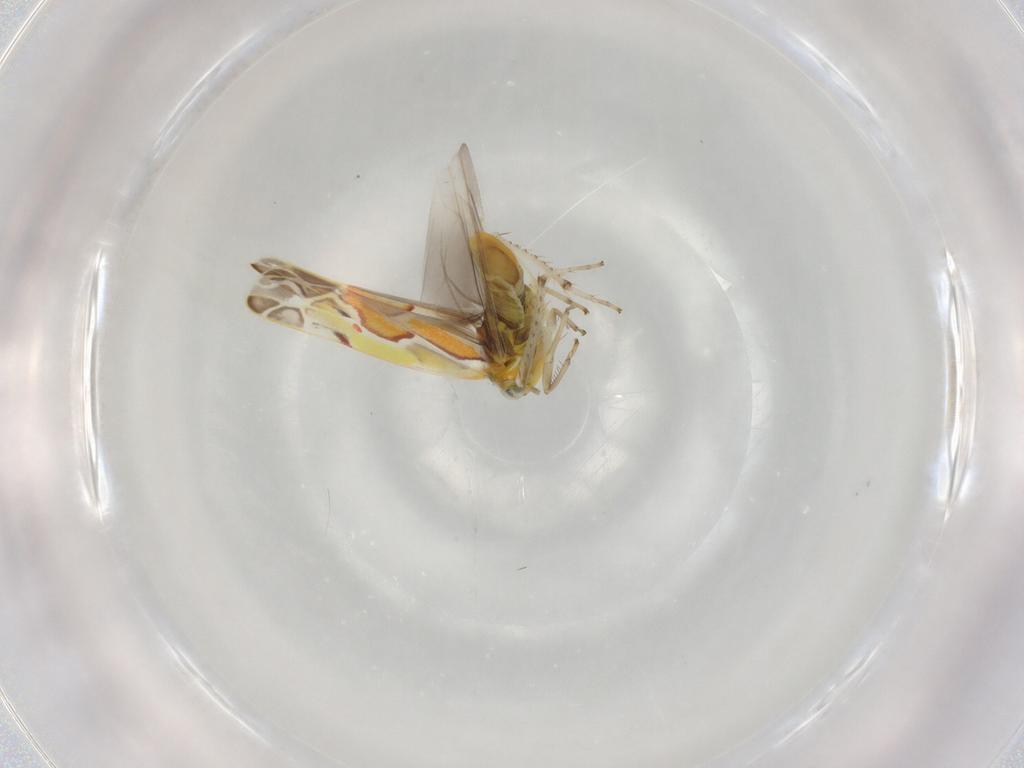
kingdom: Animalia
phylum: Arthropoda
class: Insecta
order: Hemiptera
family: Cicadellidae
